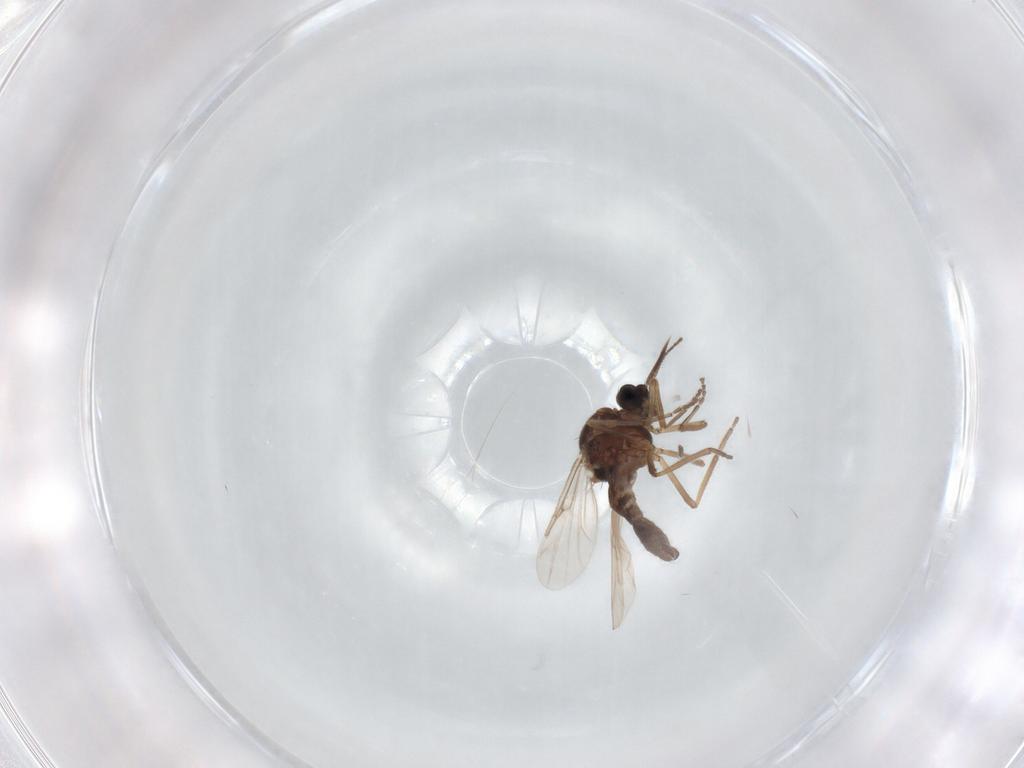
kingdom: Animalia
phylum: Arthropoda
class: Insecta
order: Diptera
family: Ceratopogonidae
